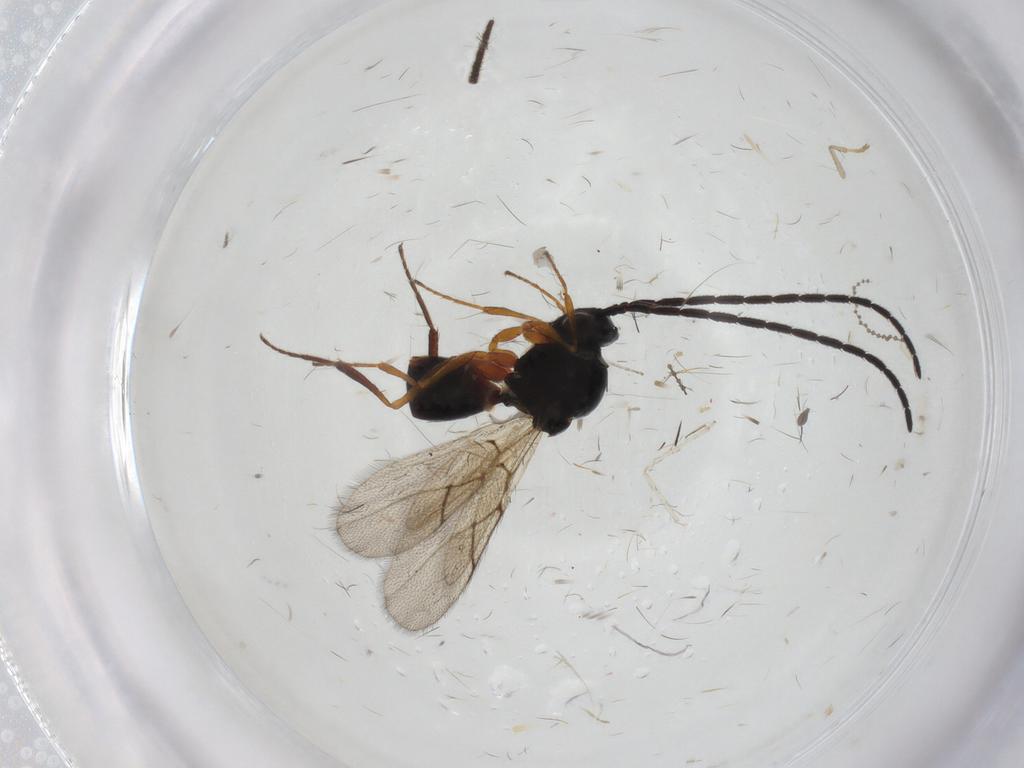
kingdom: Animalia
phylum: Arthropoda
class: Insecta
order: Hymenoptera
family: Figitidae
